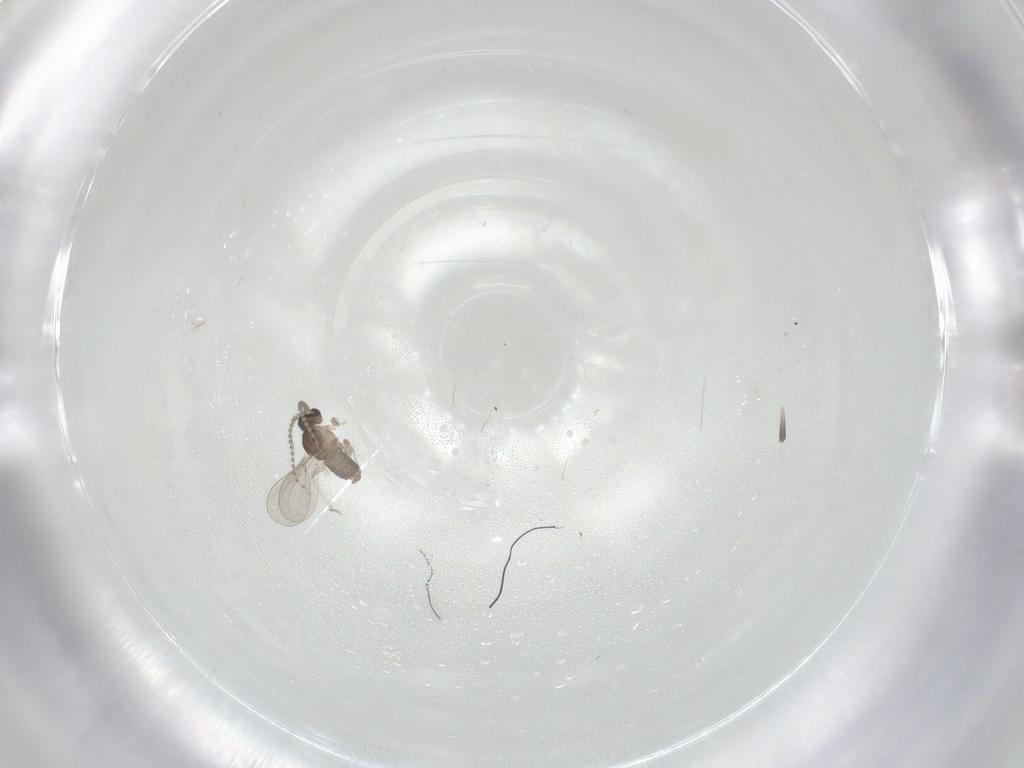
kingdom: Animalia
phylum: Arthropoda
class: Insecta
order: Diptera
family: Cecidomyiidae
